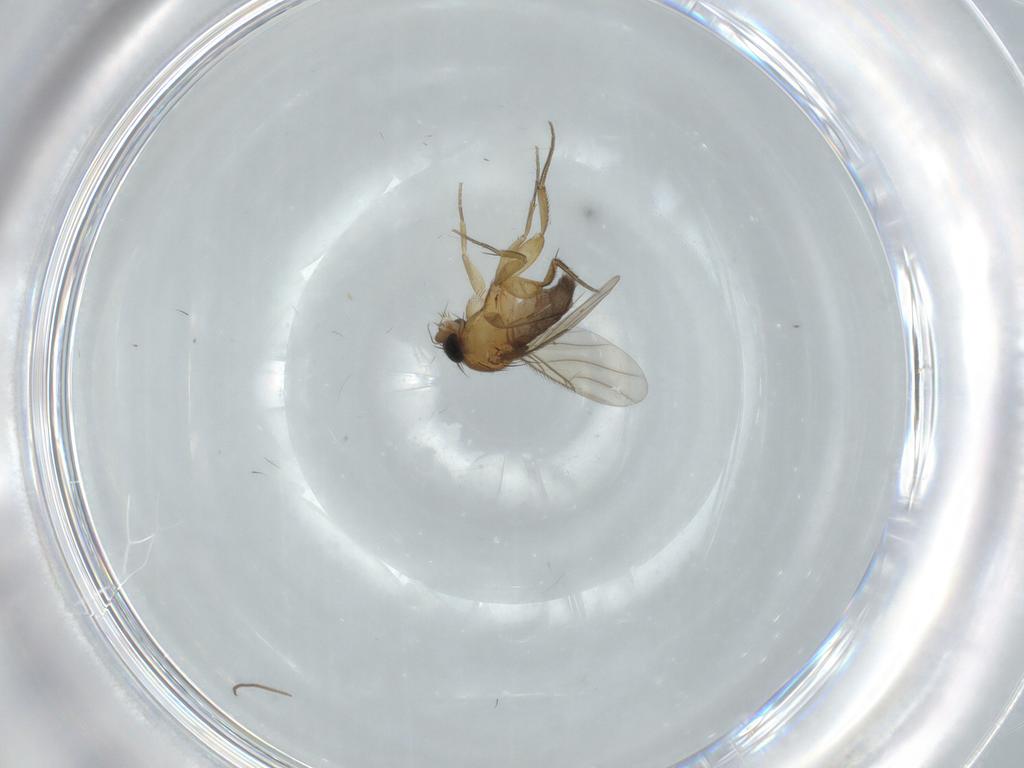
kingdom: Animalia
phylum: Arthropoda
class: Insecta
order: Diptera
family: Phoridae
